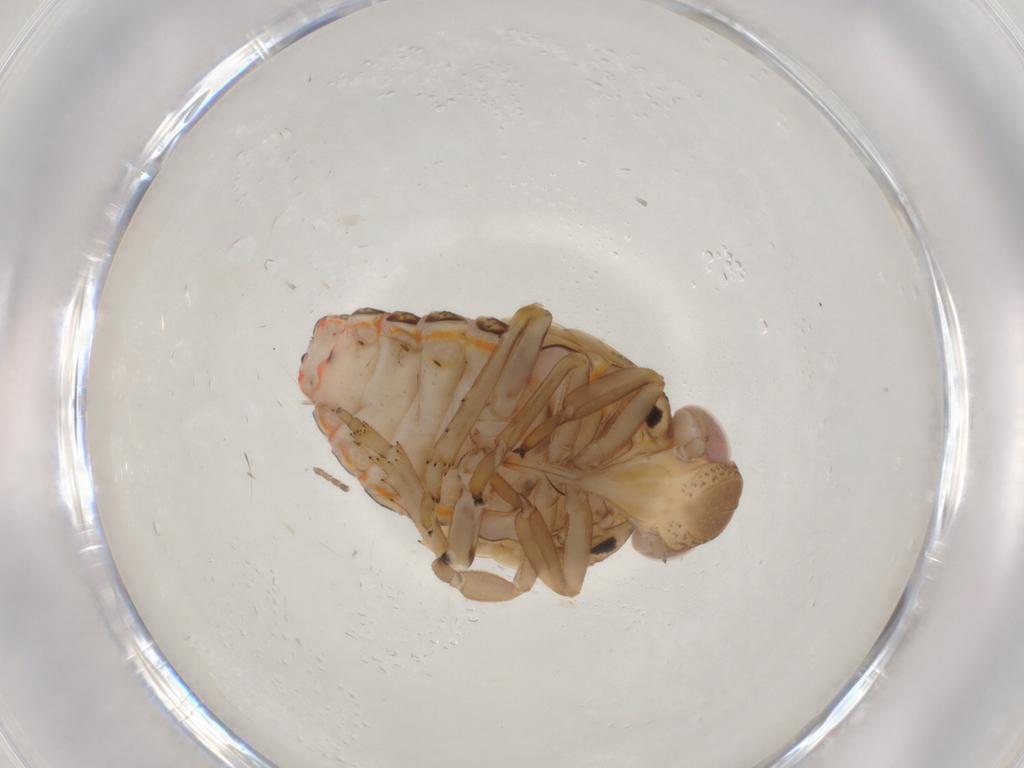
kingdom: Animalia
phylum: Arthropoda
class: Insecta
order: Hemiptera
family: Issidae
